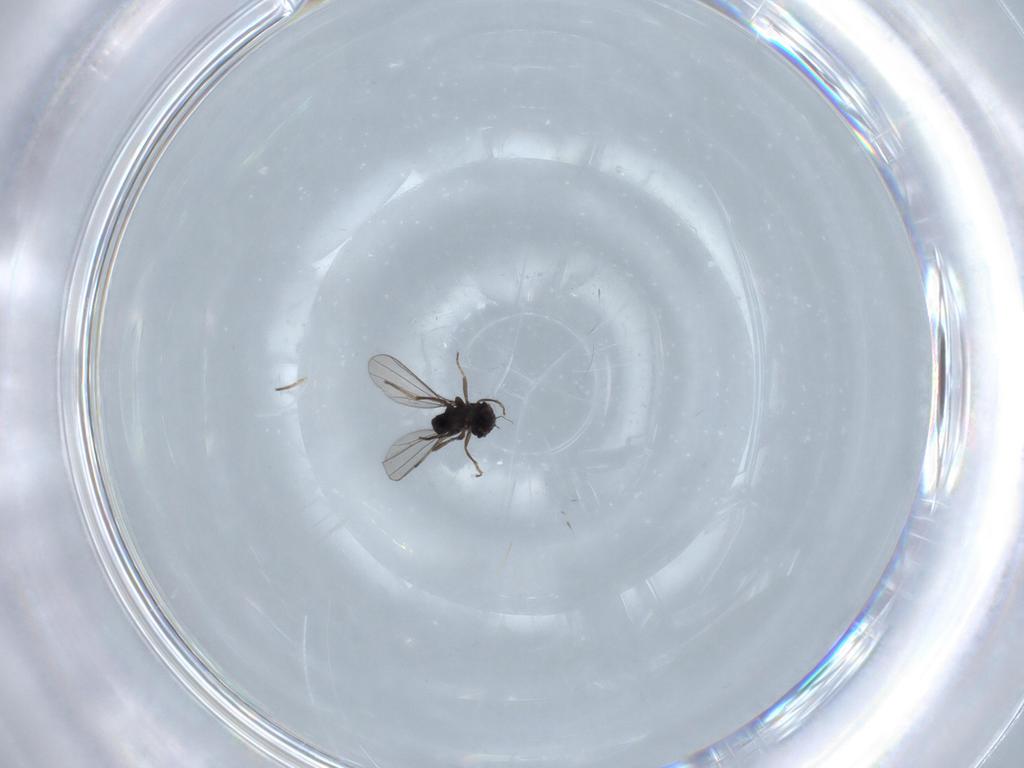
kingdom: Animalia
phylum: Arthropoda
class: Insecta
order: Diptera
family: Dolichopodidae
